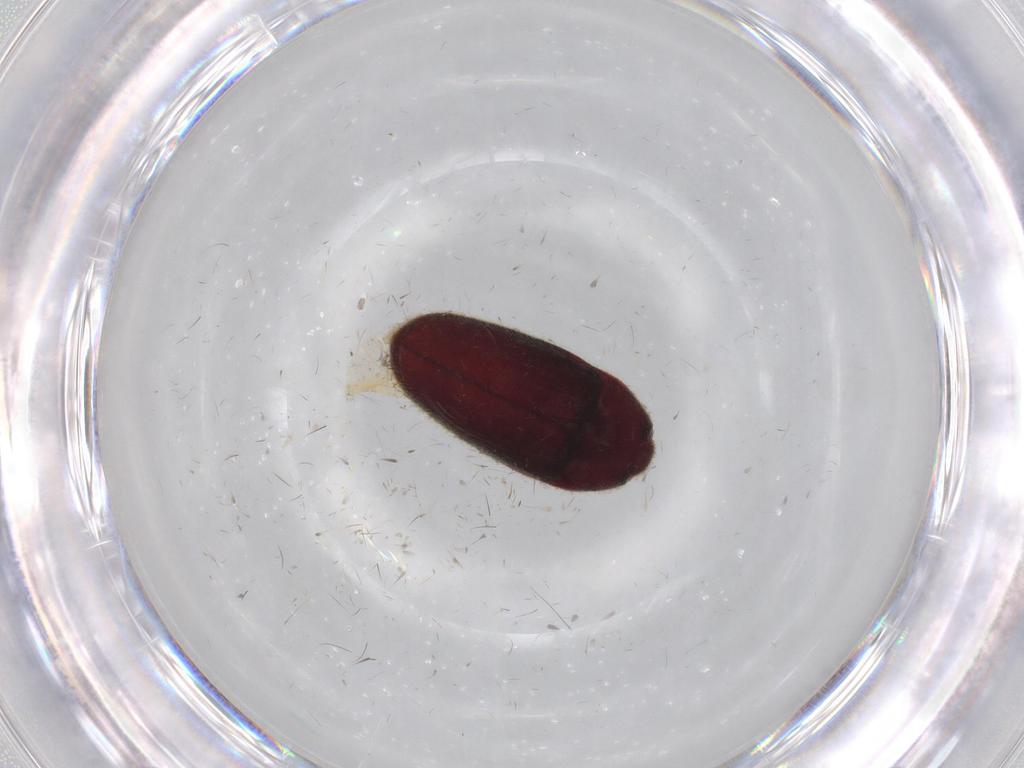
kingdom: Animalia
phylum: Arthropoda
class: Insecta
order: Coleoptera
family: Throscidae
